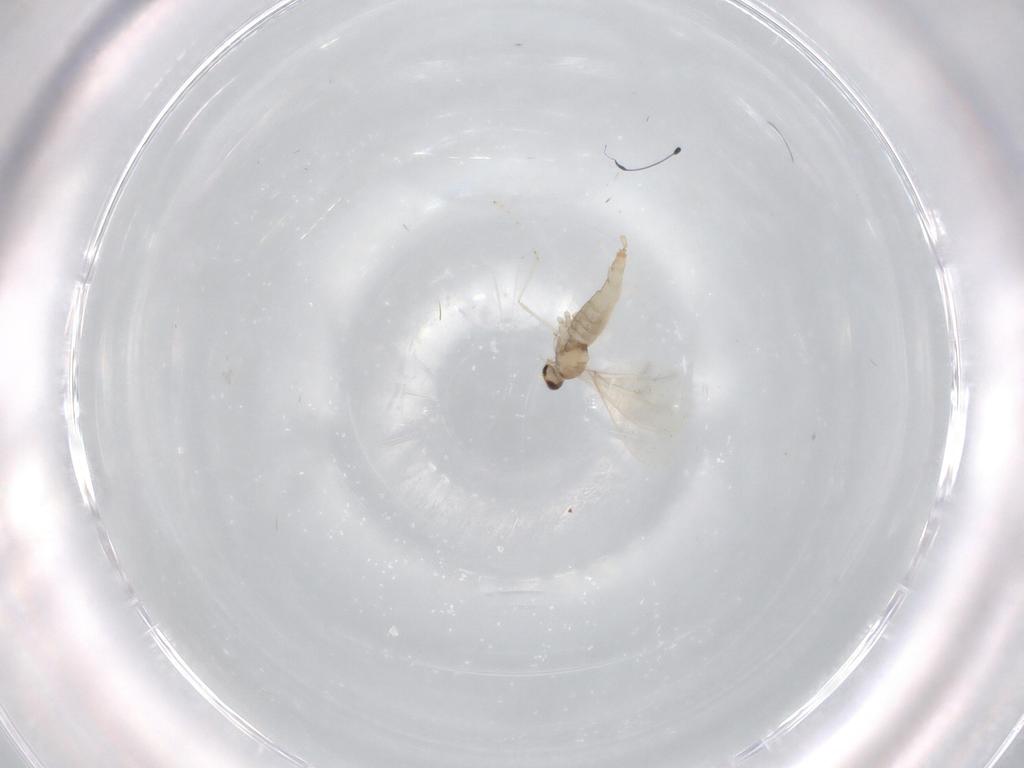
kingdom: Animalia
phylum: Arthropoda
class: Insecta
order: Diptera
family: Cecidomyiidae
